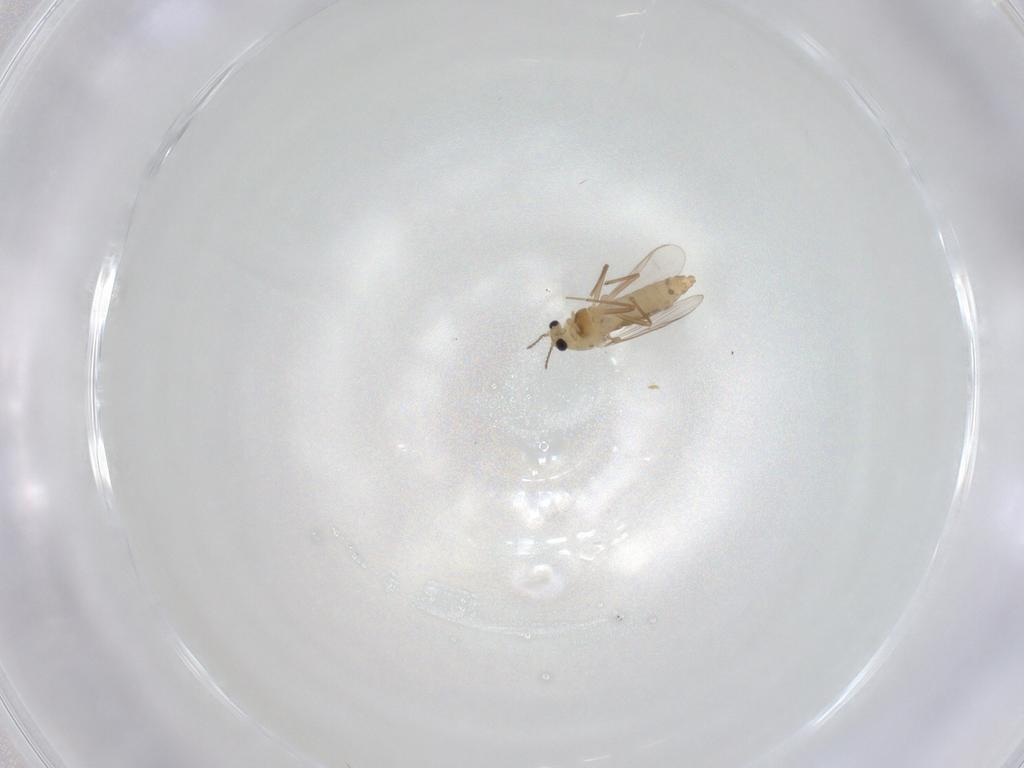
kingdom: Animalia
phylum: Arthropoda
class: Insecta
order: Diptera
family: Chironomidae
